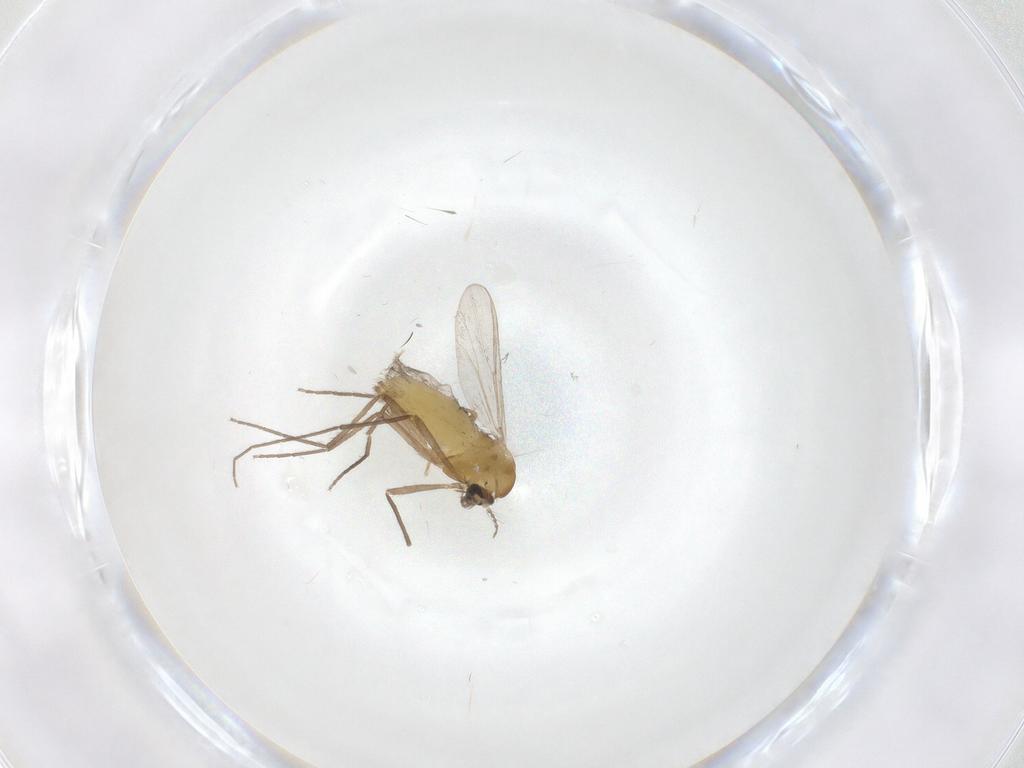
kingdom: Animalia
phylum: Arthropoda
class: Insecta
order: Diptera
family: Chironomidae
